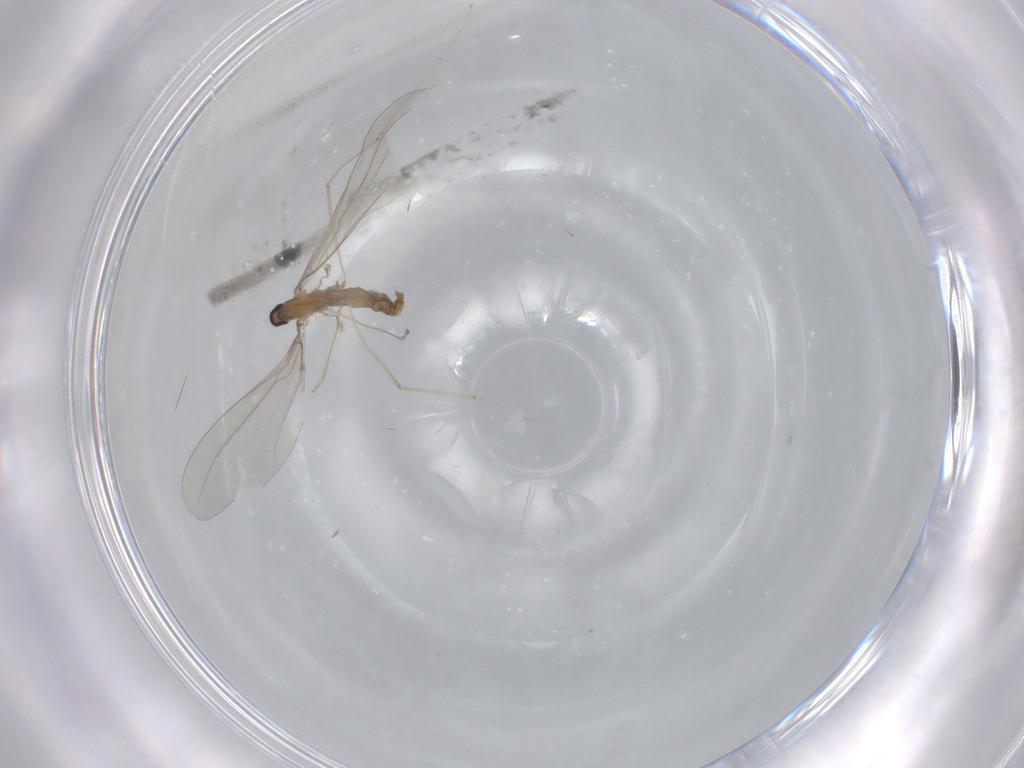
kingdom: Animalia
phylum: Arthropoda
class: Insecta
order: Diptera
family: Cecidomyiidae
